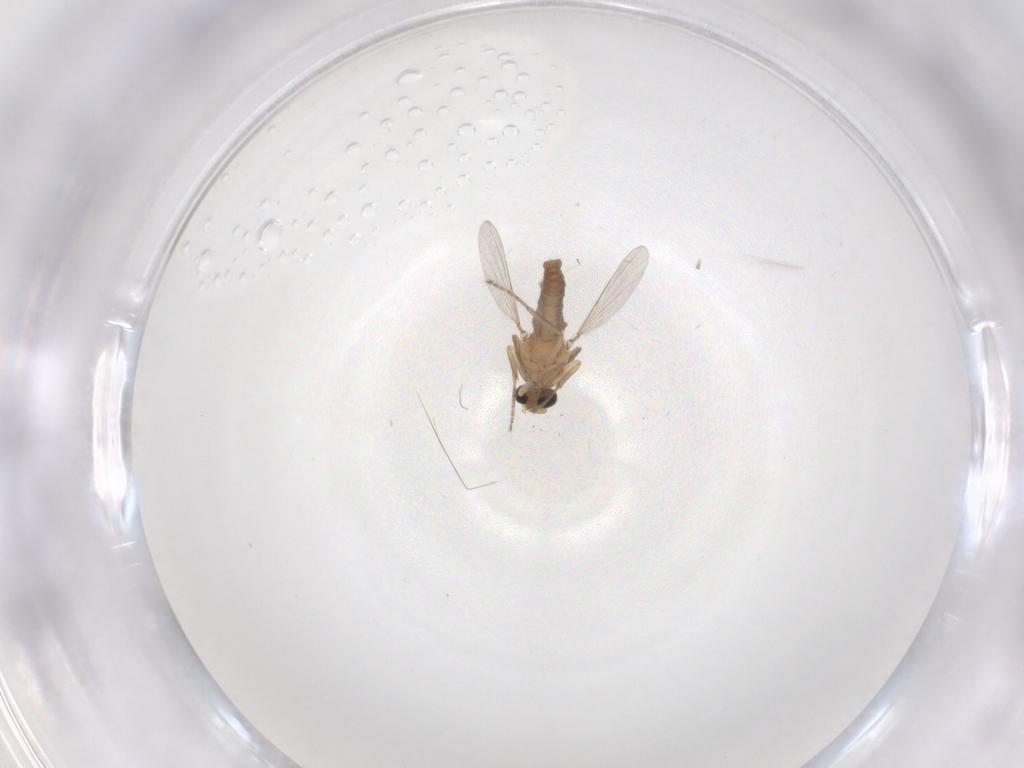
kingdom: Animalia
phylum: Arthropoda
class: Insecta
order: Diptera
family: Ceratopogonidae
